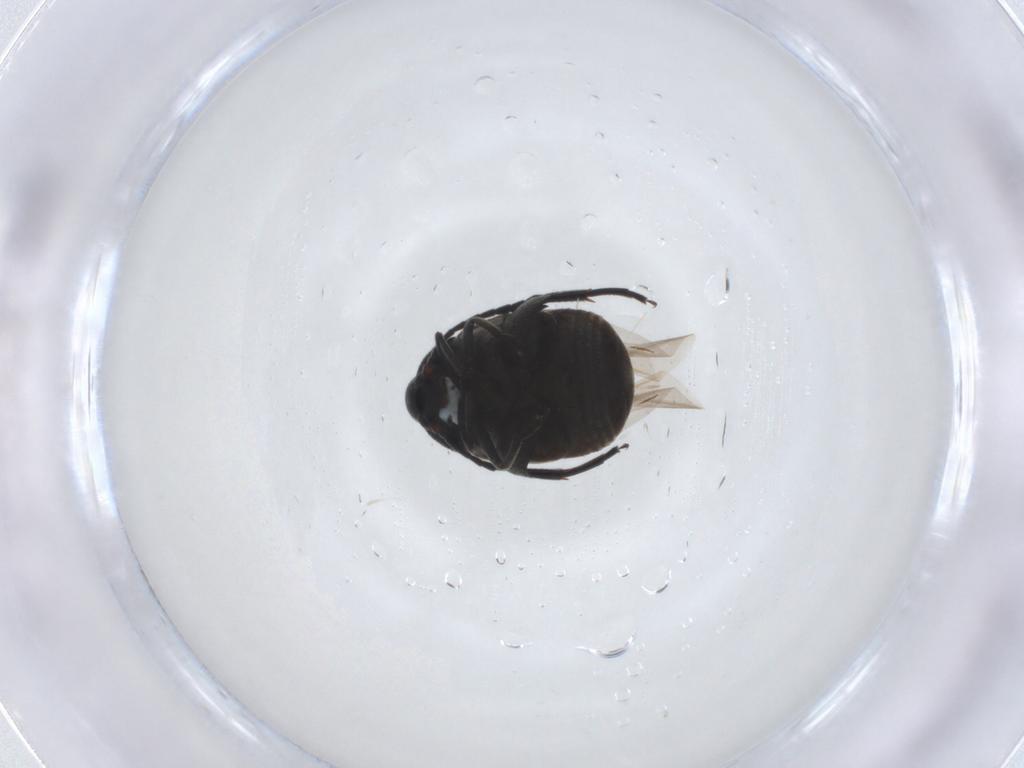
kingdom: Animalia
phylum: Arthropoda
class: Insecta
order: Coleoptera
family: Chrysomelidae
